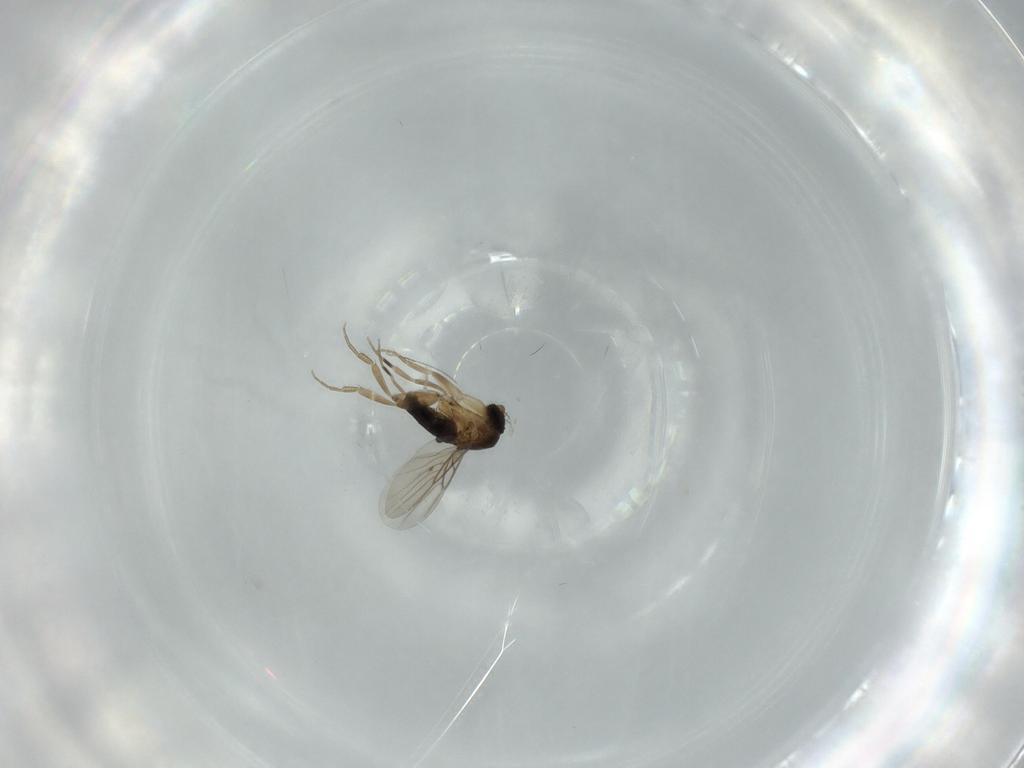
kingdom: Animalia
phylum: Arthropoda
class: Insecta
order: Diptera
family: Phoridae
